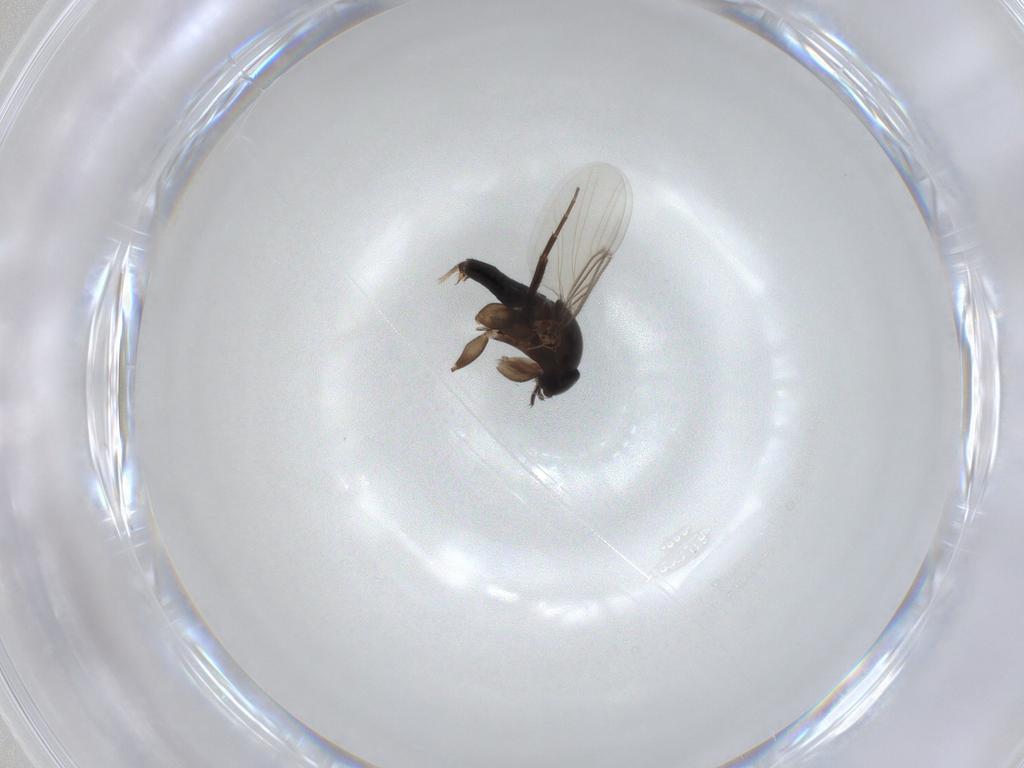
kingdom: Animalia
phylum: Arthropoda
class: Insecta
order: Diptera
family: Phoridae
